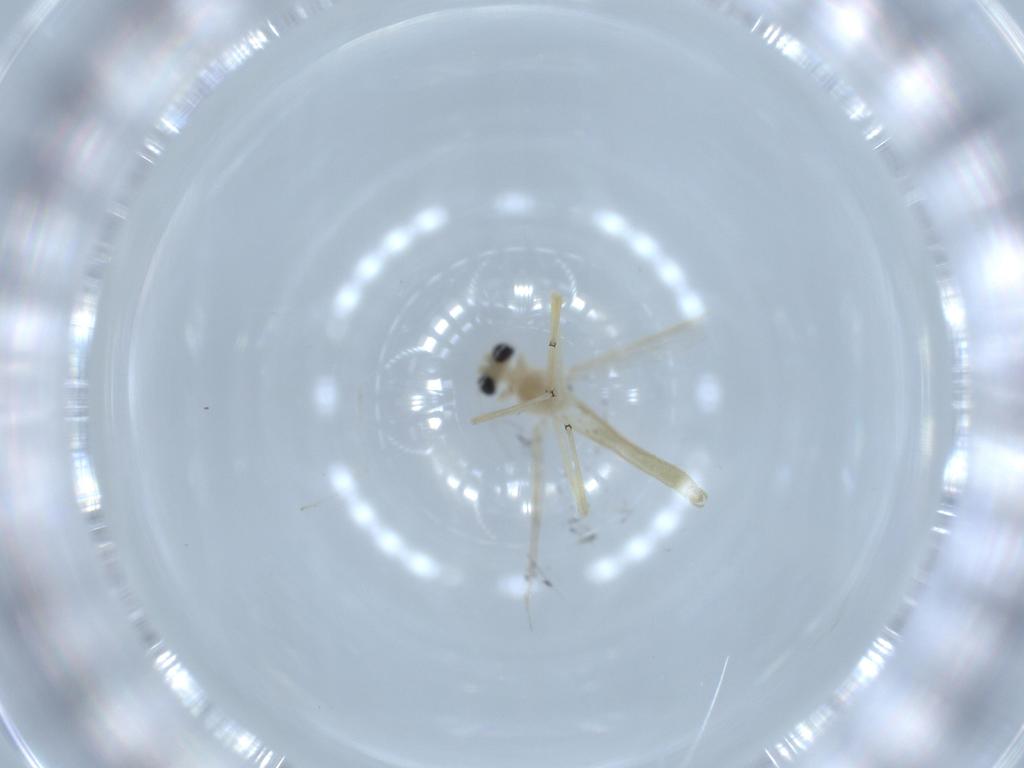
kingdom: Animalia
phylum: Arthropoda
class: Insecta
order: Diptera
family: Chironomidae
